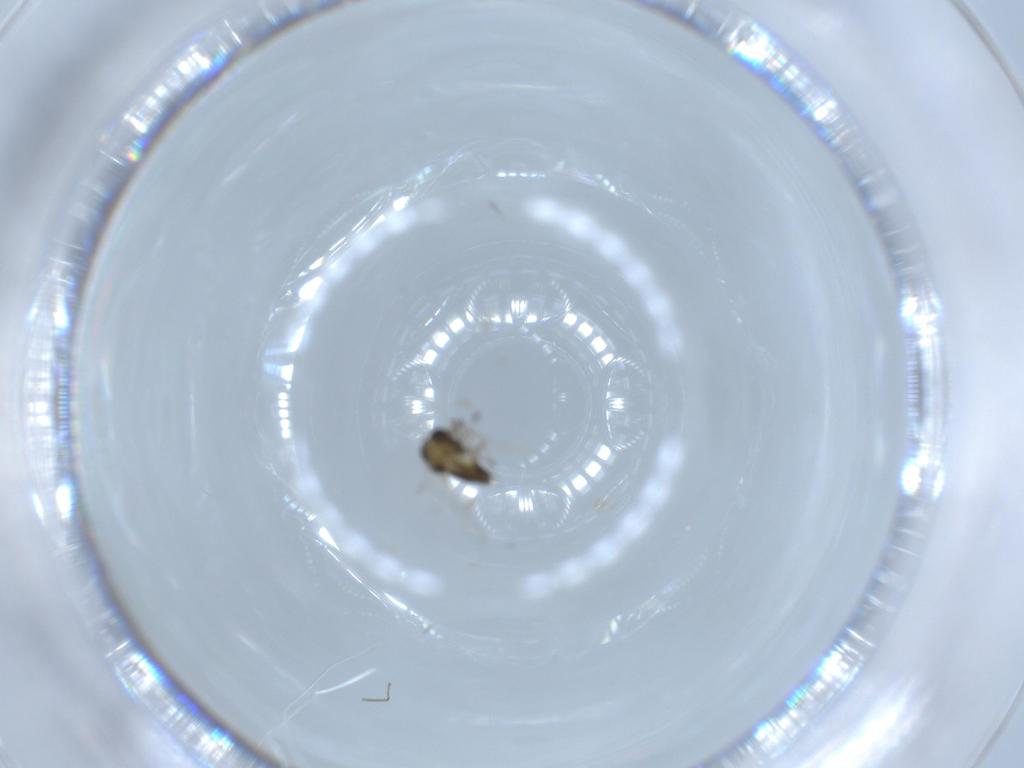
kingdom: Animalia
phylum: Arthropoda
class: Insecta
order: Diptera
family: Chironomidae
